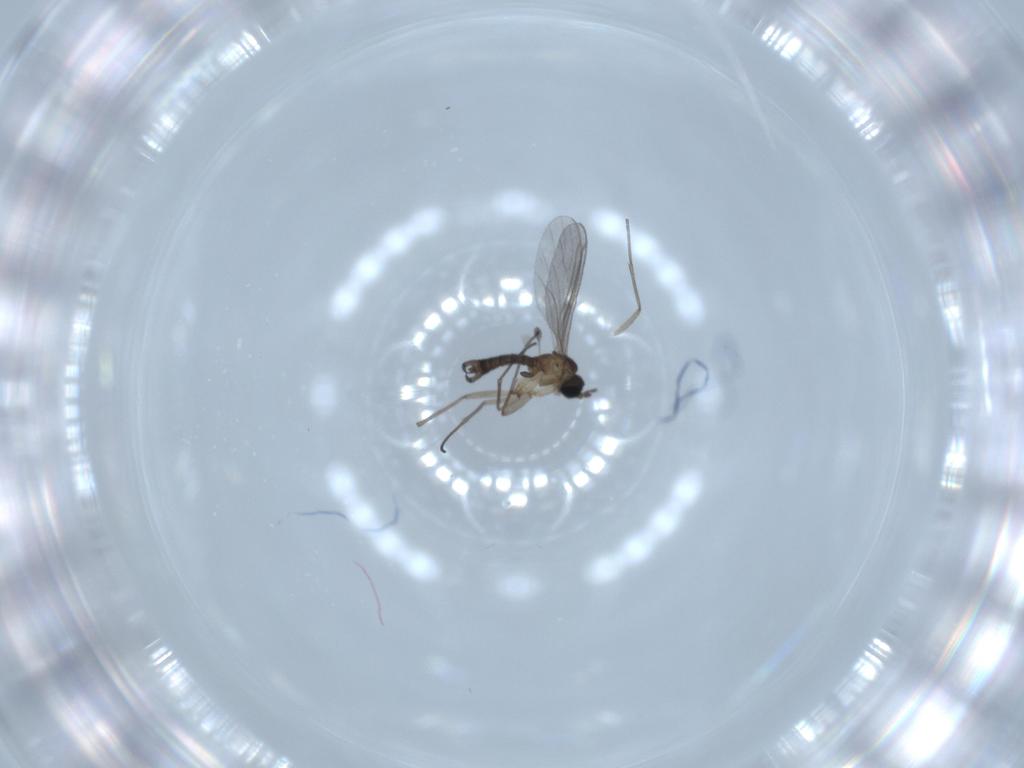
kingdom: Animalia
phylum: Arthropoda
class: Insecta
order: Diptera
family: Sciaridae
